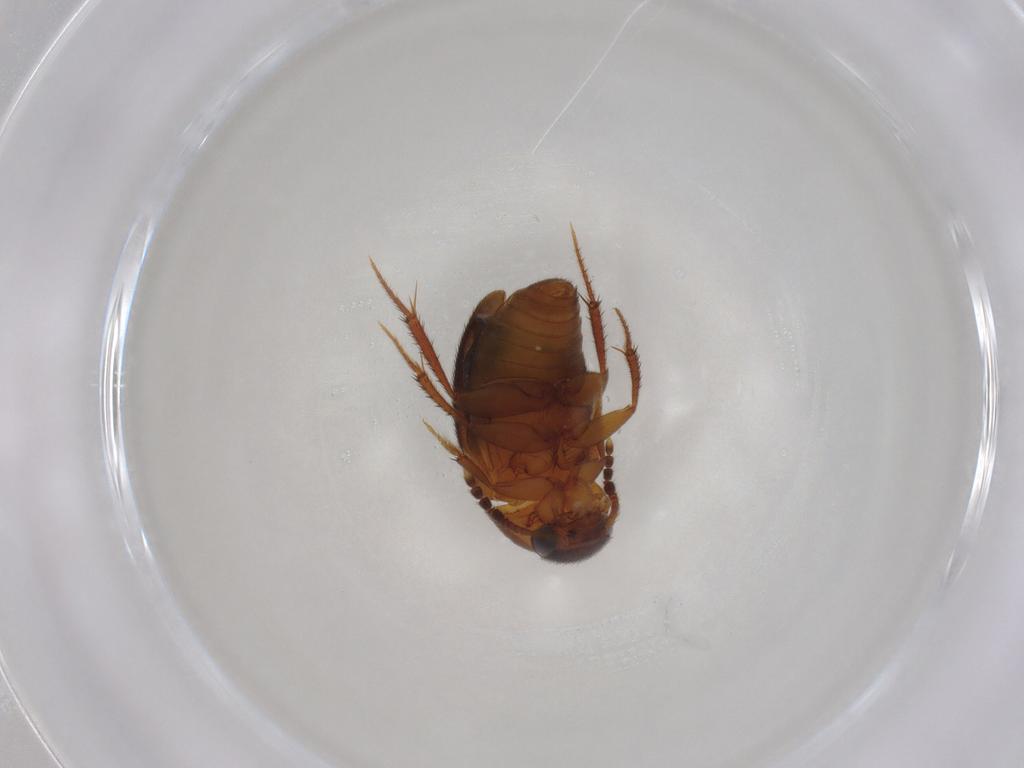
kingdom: Animalia
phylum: Arthropoda
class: Insecta
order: Coleoptera
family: Leiodidae
